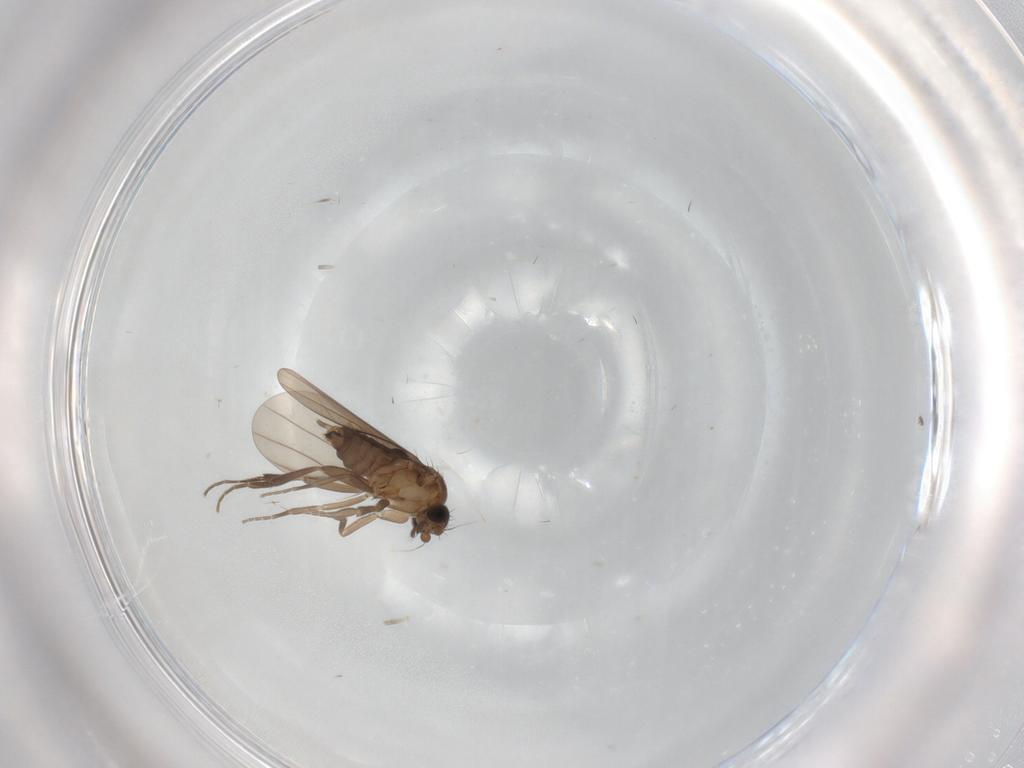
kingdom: Animalia
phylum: Arthropoda
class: Insecta
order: Diptera
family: Phoridae
